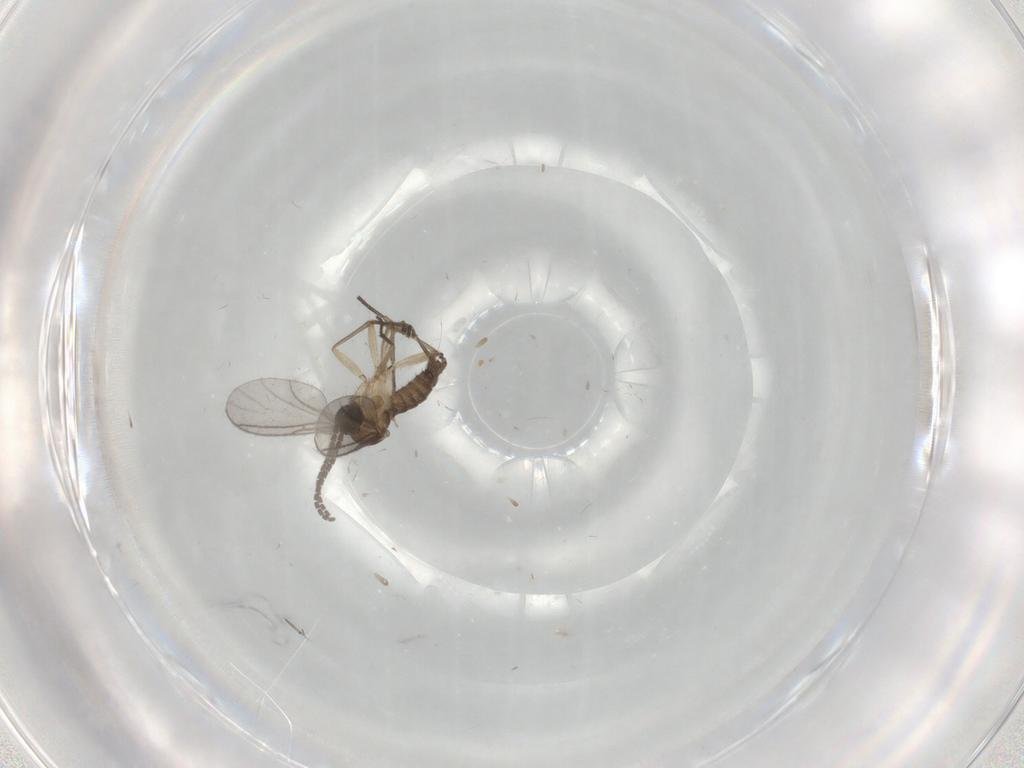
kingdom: Animalia
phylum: Arthropoda
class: Insecta
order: Diptera
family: Sciaridae
